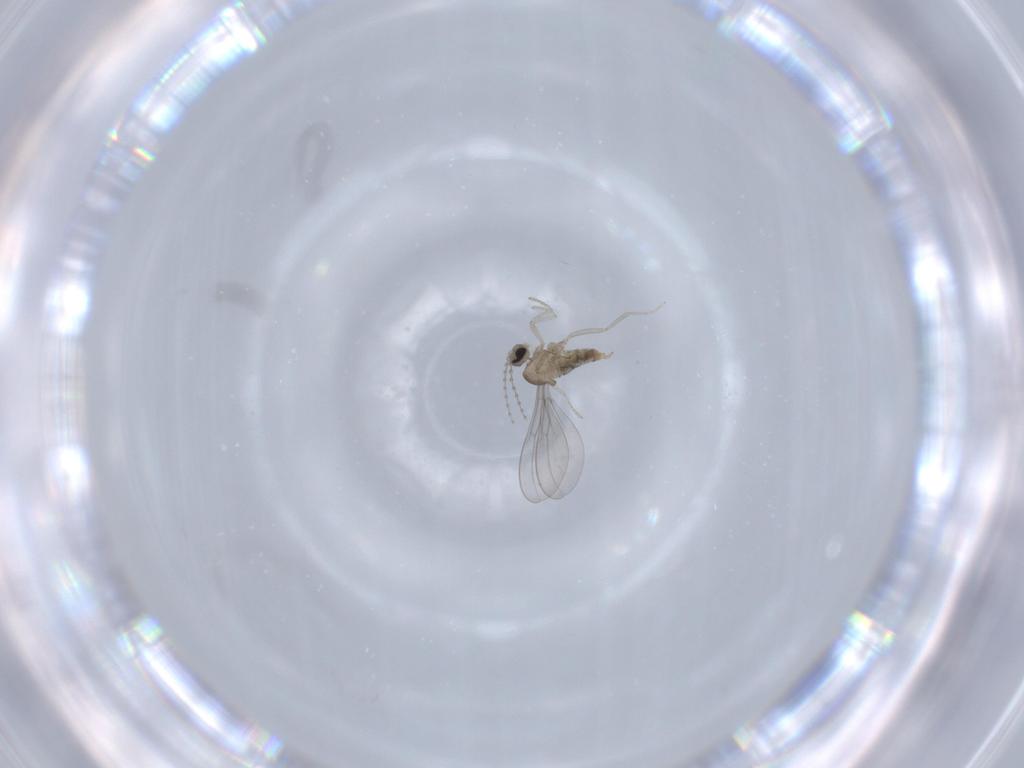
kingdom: Animalia
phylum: Arthropoda
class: Insecta
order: Diptera
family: Cecidomyiidae
